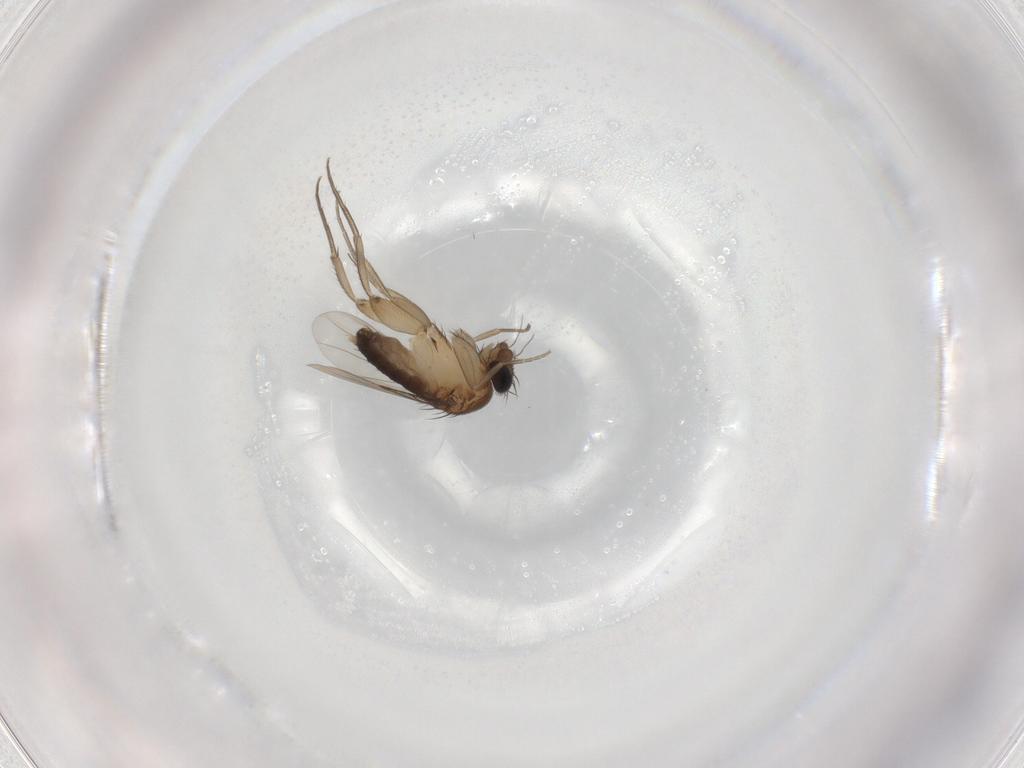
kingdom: Animalia
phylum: Arthropoda
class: Insecta
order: Diptera
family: Phoridae
